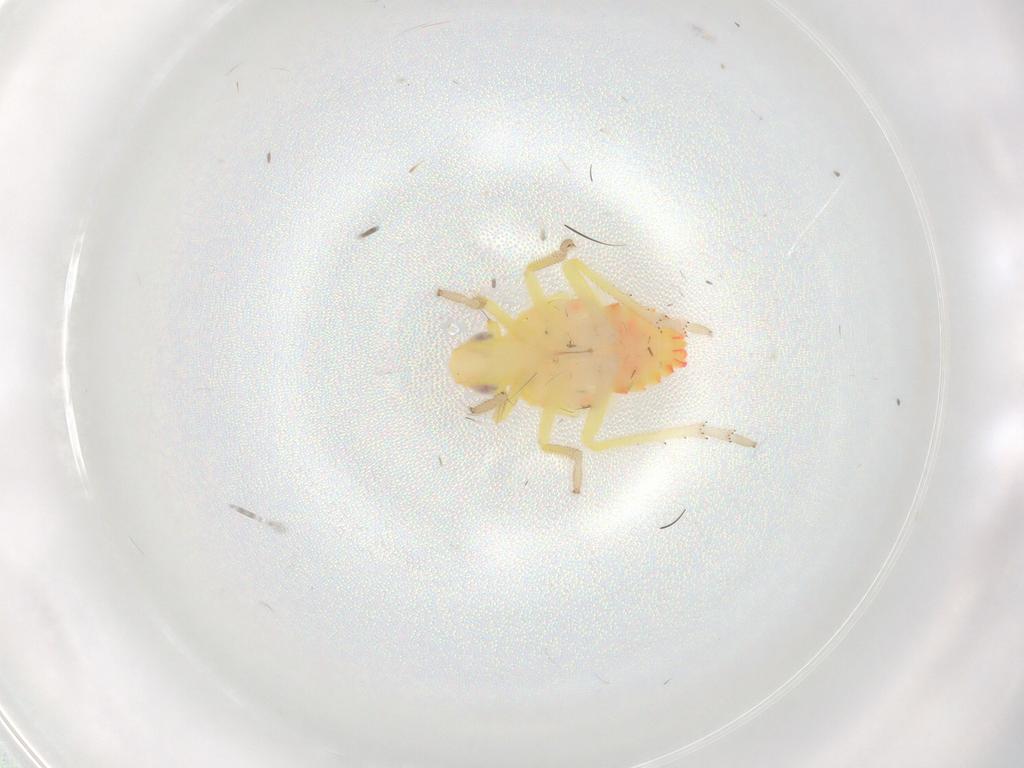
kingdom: Animalia
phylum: Arthropoda
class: Insecta
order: Hemiptera
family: Tropiduchidae
